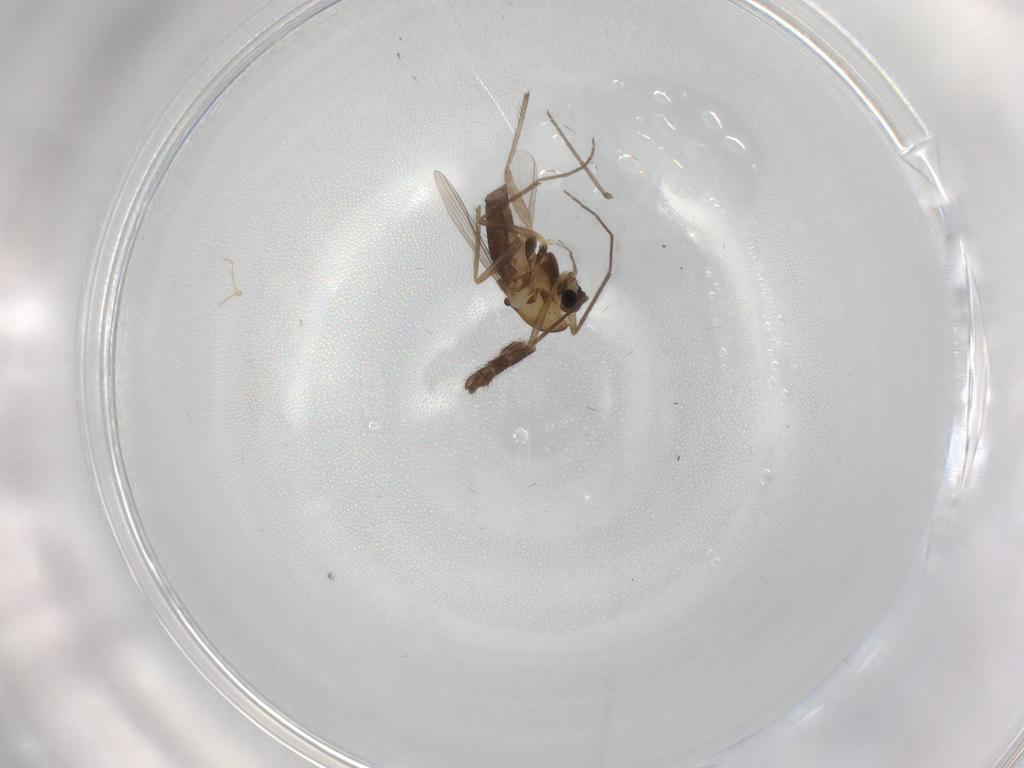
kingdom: Animalia
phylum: Arthropoda
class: Insecta
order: Diptera
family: Chironomidae
